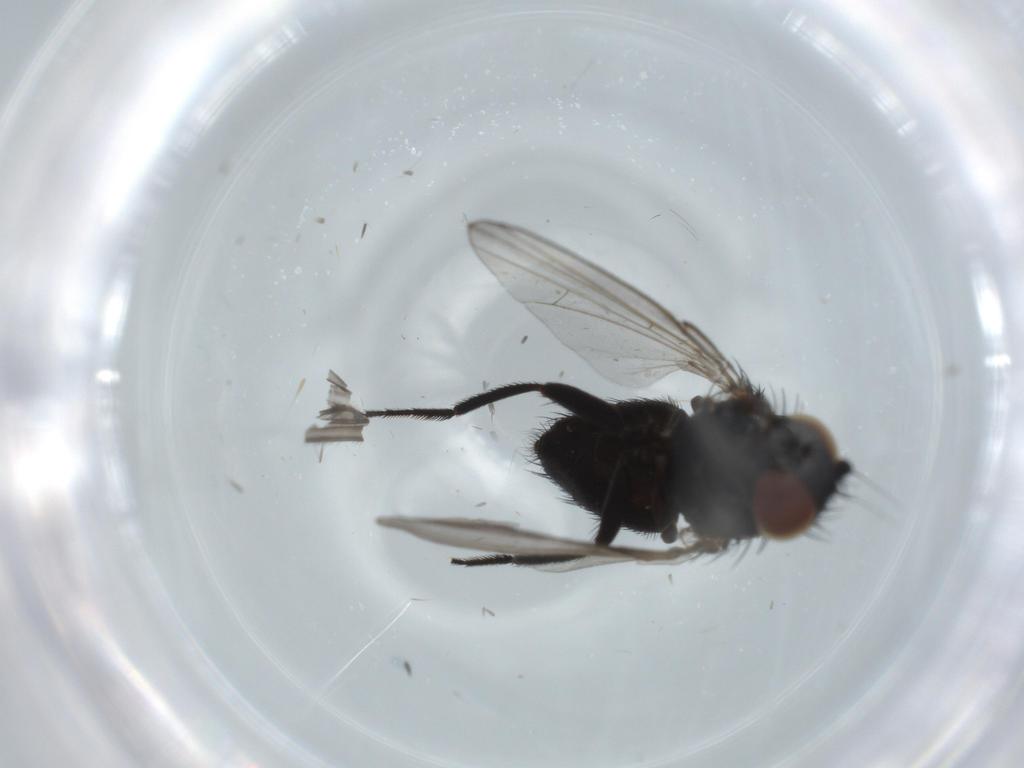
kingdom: Animalia
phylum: Arthropoda
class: Insecta
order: Diptera
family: Milichiidae
